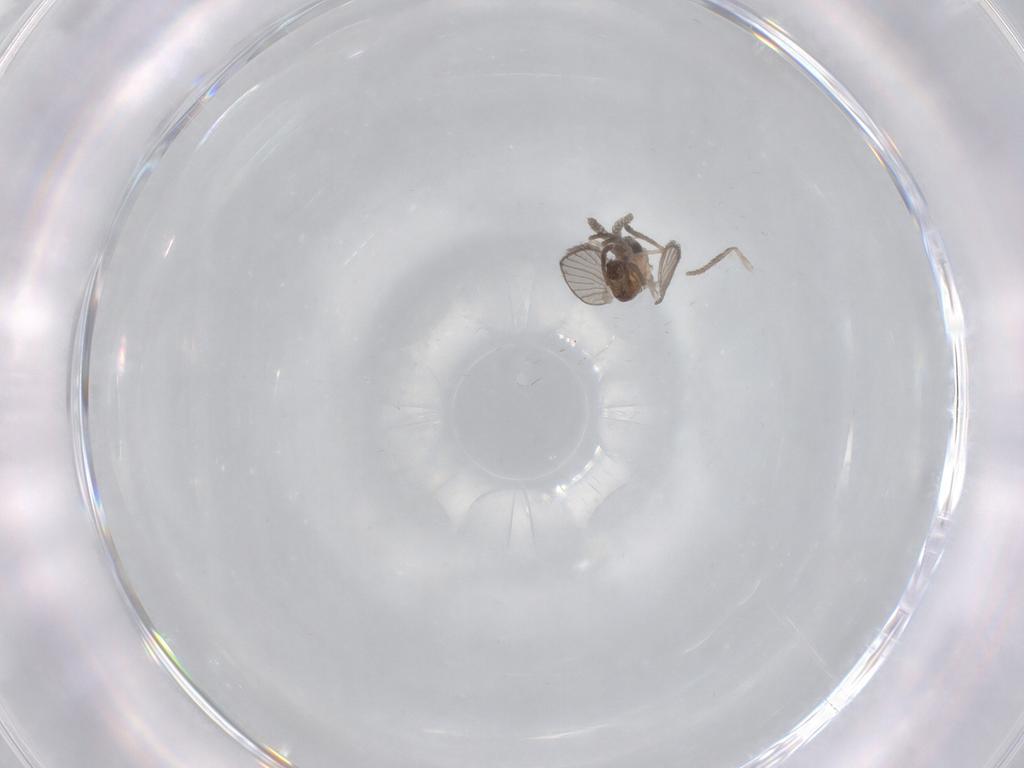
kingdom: Animalia
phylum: Arthropoda
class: Insecta
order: Diptera
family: Psychodidae
